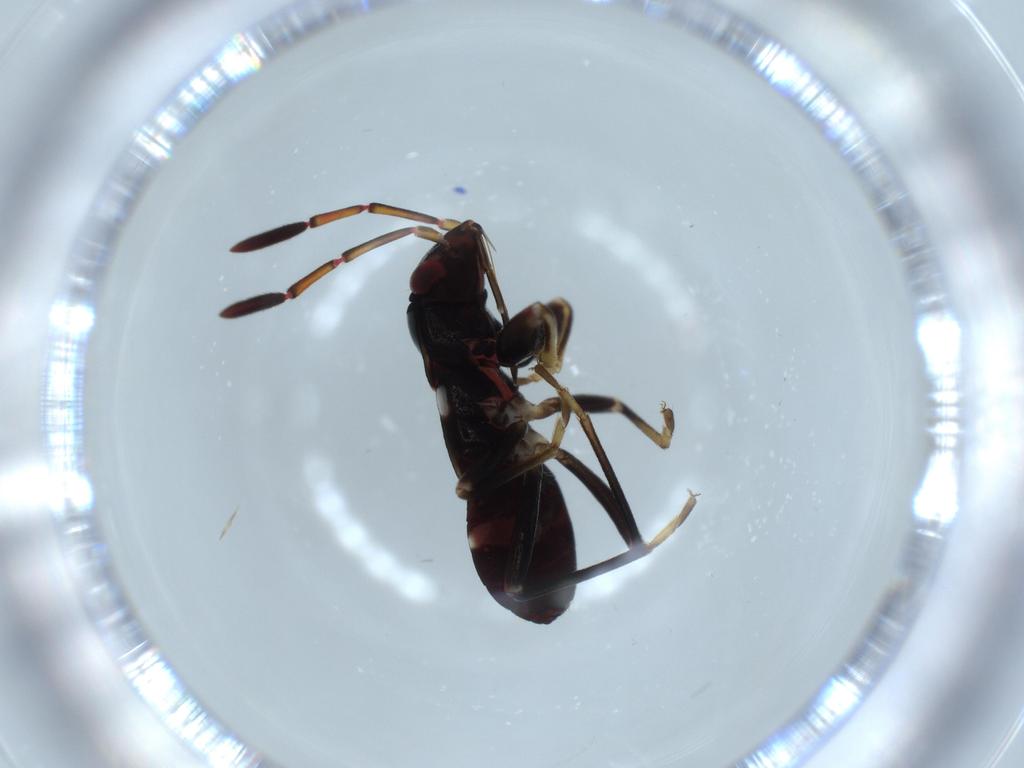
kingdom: Animalia
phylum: Arthropoda
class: Insecta
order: Hemiptera
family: Rhyparochromidae
